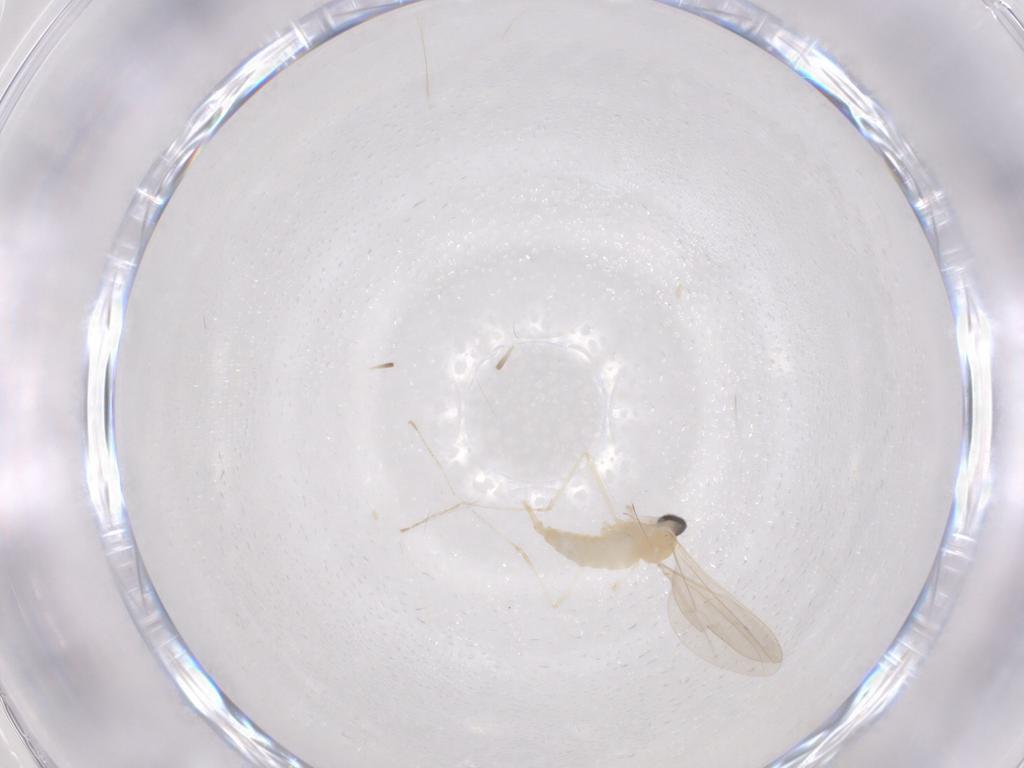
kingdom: Animalia
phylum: Arthropoda
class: Insecta
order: Diptera
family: Cecidomyiidae
